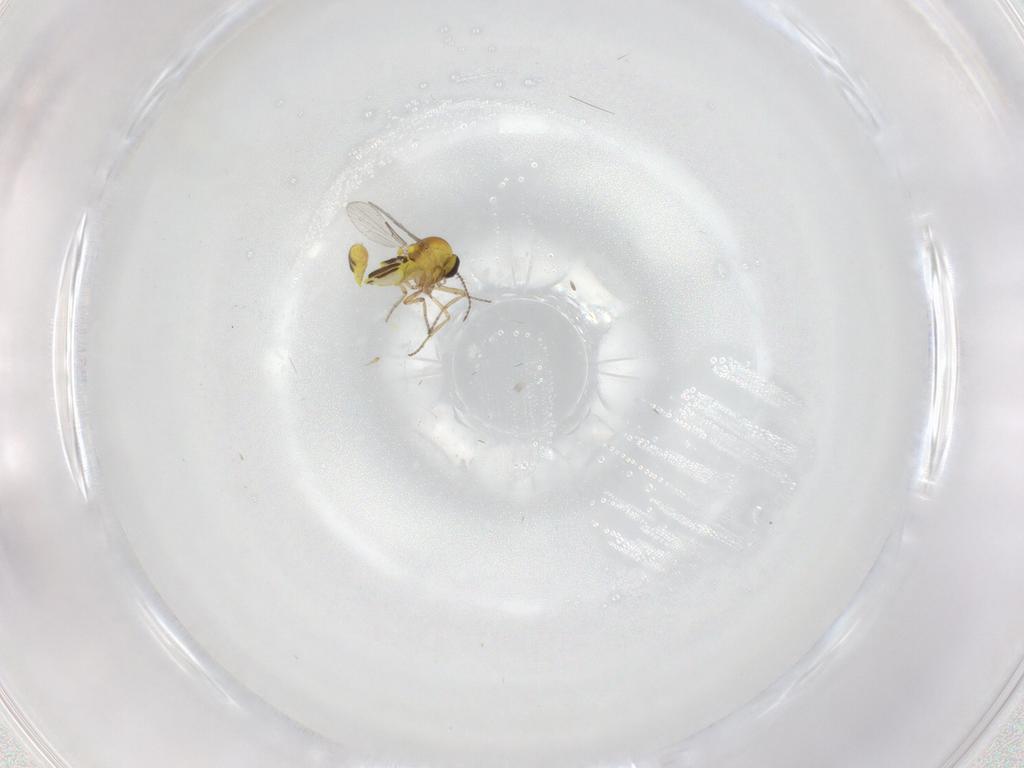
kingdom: Animalia
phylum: Arthropoda
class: Insecta
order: Diptera
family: Ceratopogonidae
